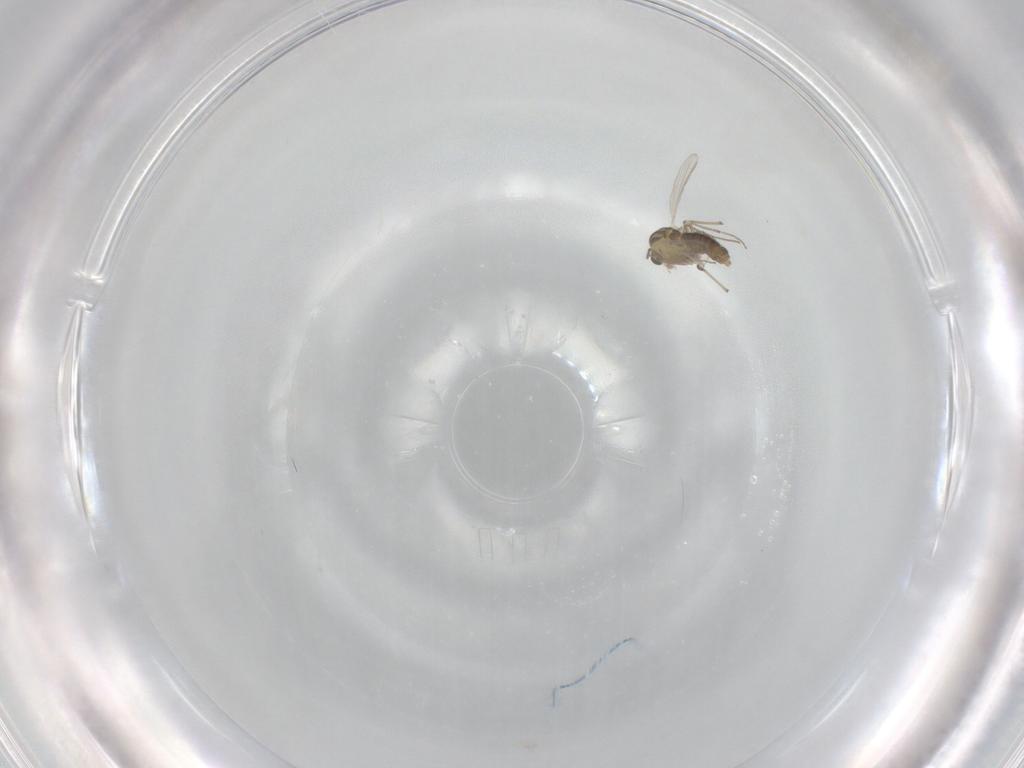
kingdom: Animalia
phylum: Arthropoda
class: Insecta
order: Diptera
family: Chironomidae
